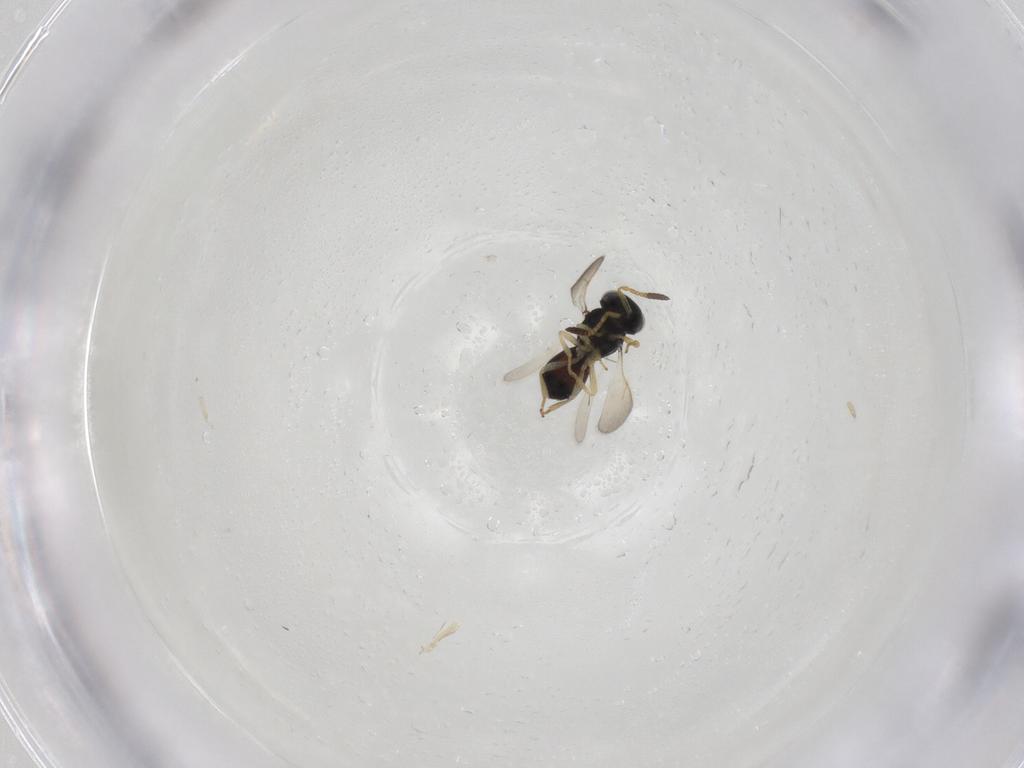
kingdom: Animalia
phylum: Arthropoda
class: Insecta
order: Hymenoptera
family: Scelionidae
